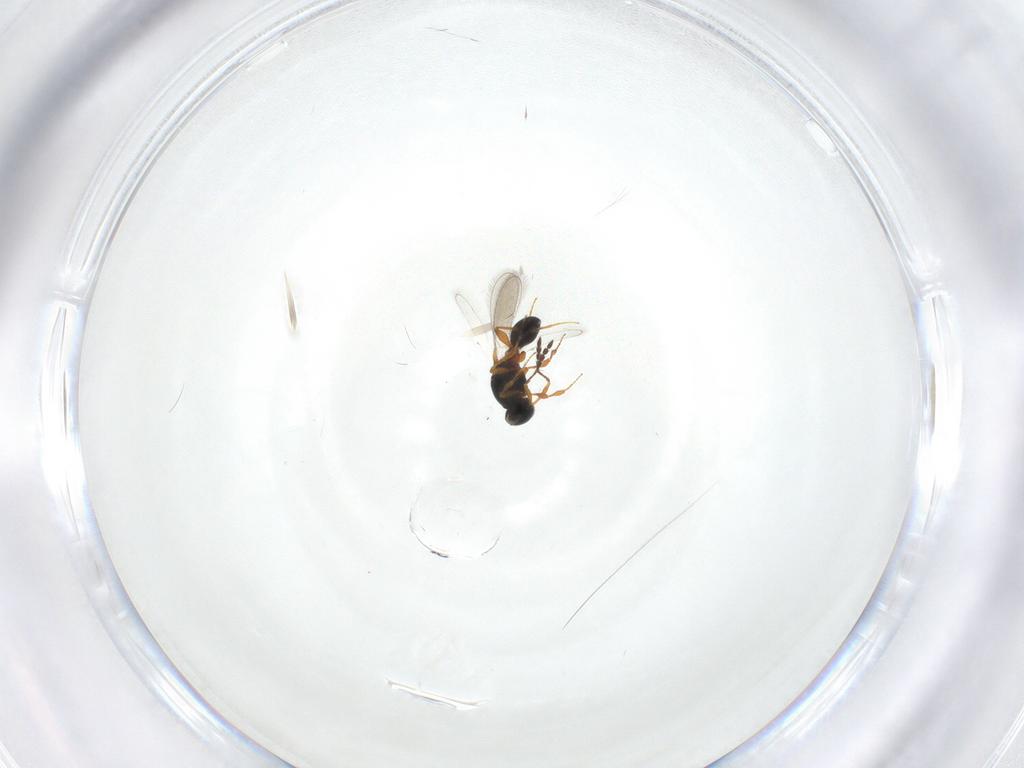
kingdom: Animalia
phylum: Arthropoda
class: Insecta
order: Hymenoptera
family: Platygastridae
